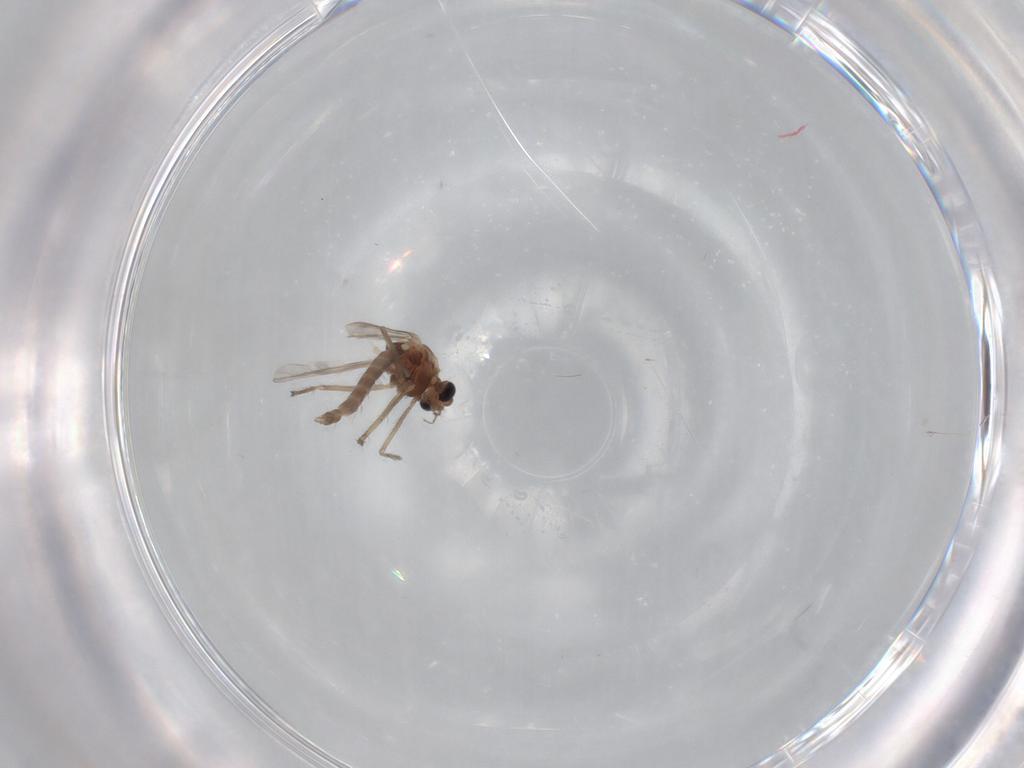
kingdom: Animalia
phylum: Arthropoda
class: Insecta
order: Diptera
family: Chironomidae
